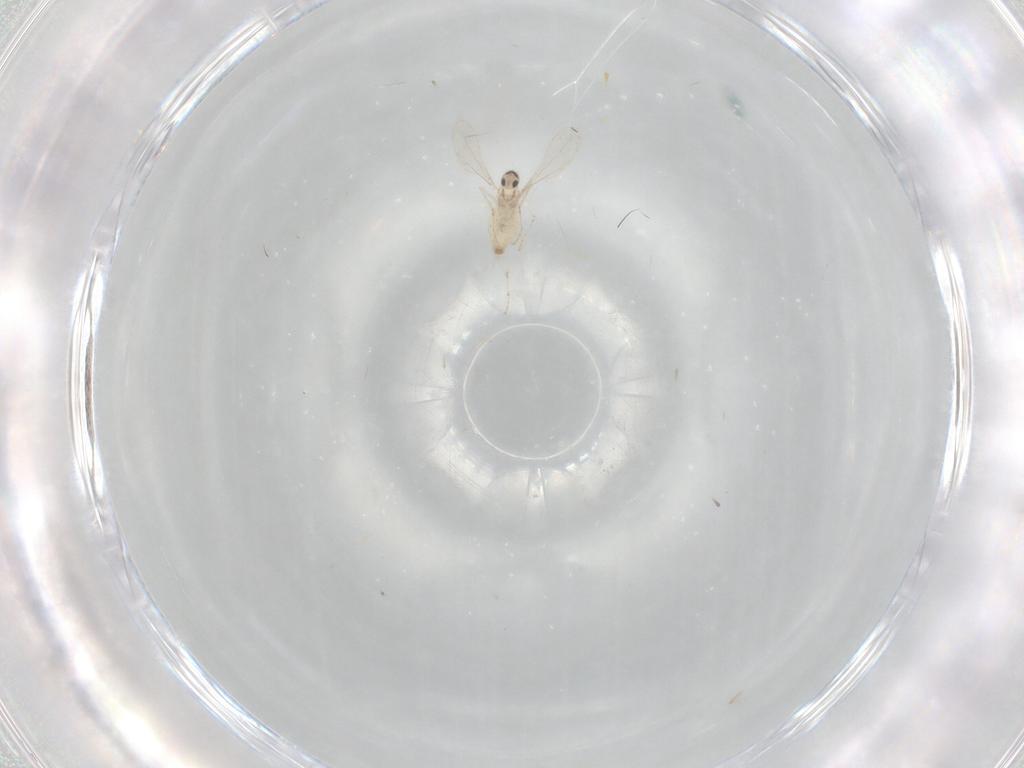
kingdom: Animalia
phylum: Arthropoda
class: Insecta
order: Diptera
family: Cecidomyiidae
